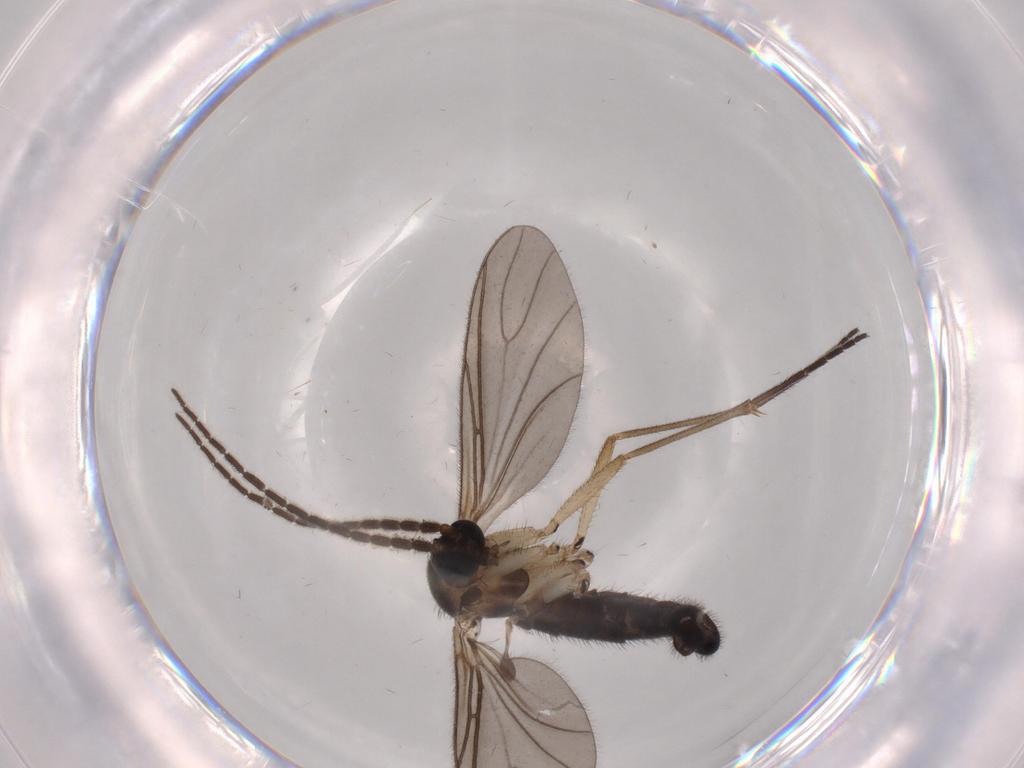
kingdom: Animalia
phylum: Arthropoda
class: Insecta
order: Diptera
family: Sciaridae
